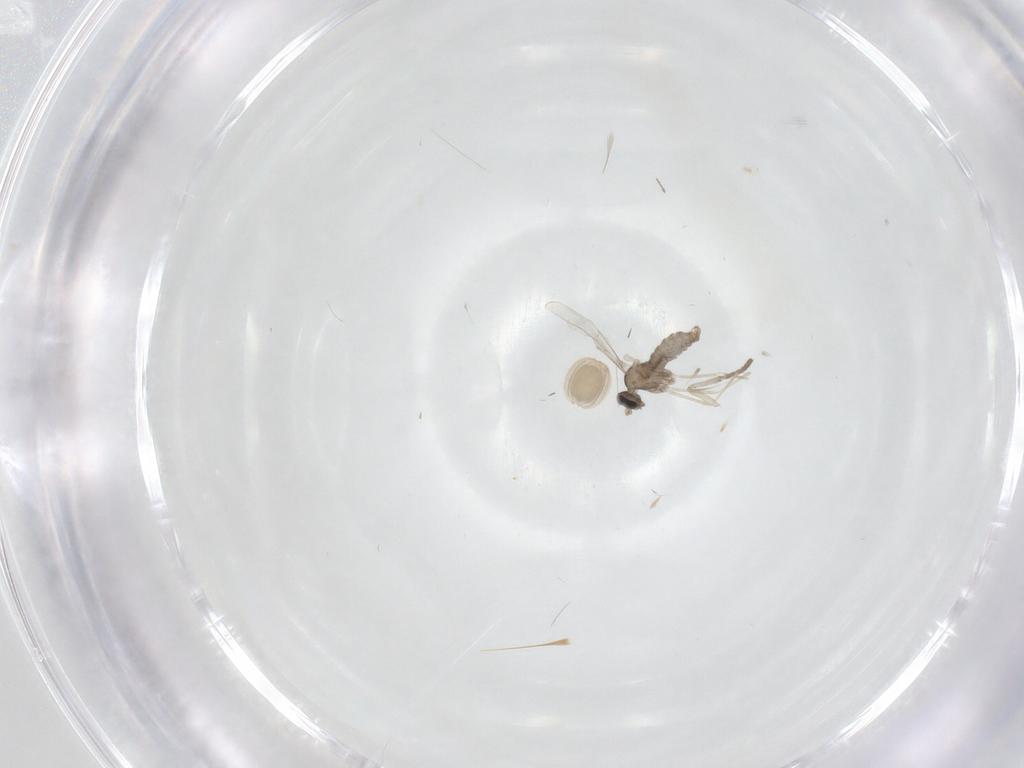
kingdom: Animalia
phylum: Arthropoda
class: Insecta
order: Diptera
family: Cecidomyiidae
